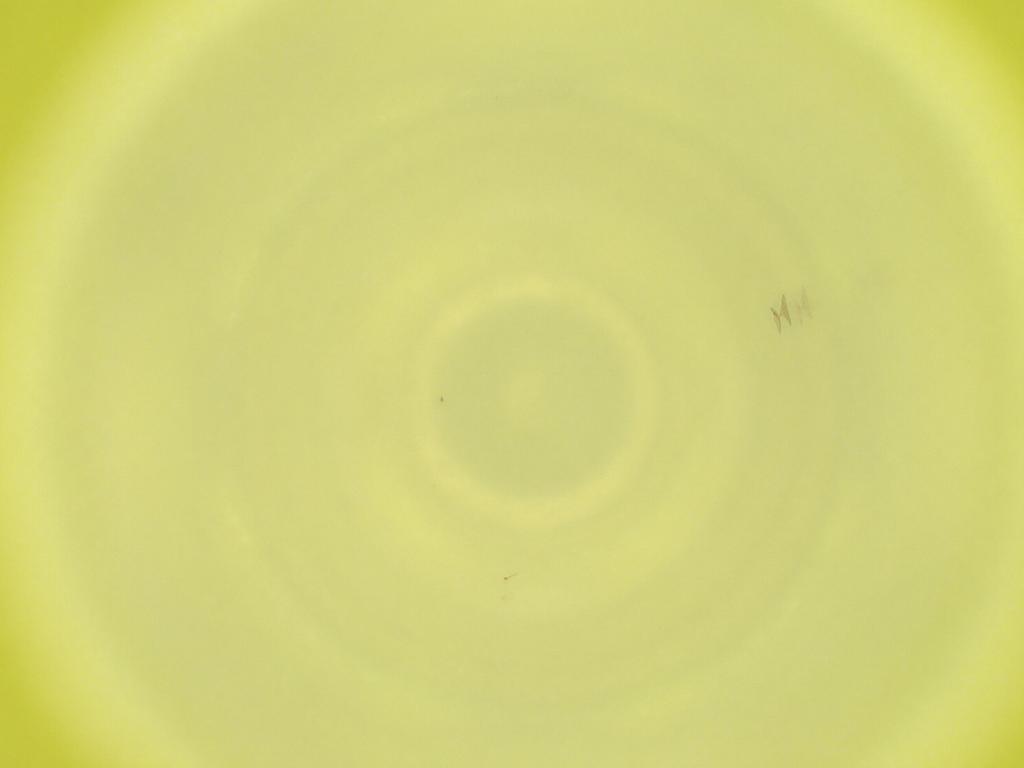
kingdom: Animalia
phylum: Arthropoda
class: Insecta
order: Diptera
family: Cecidomyiidae
